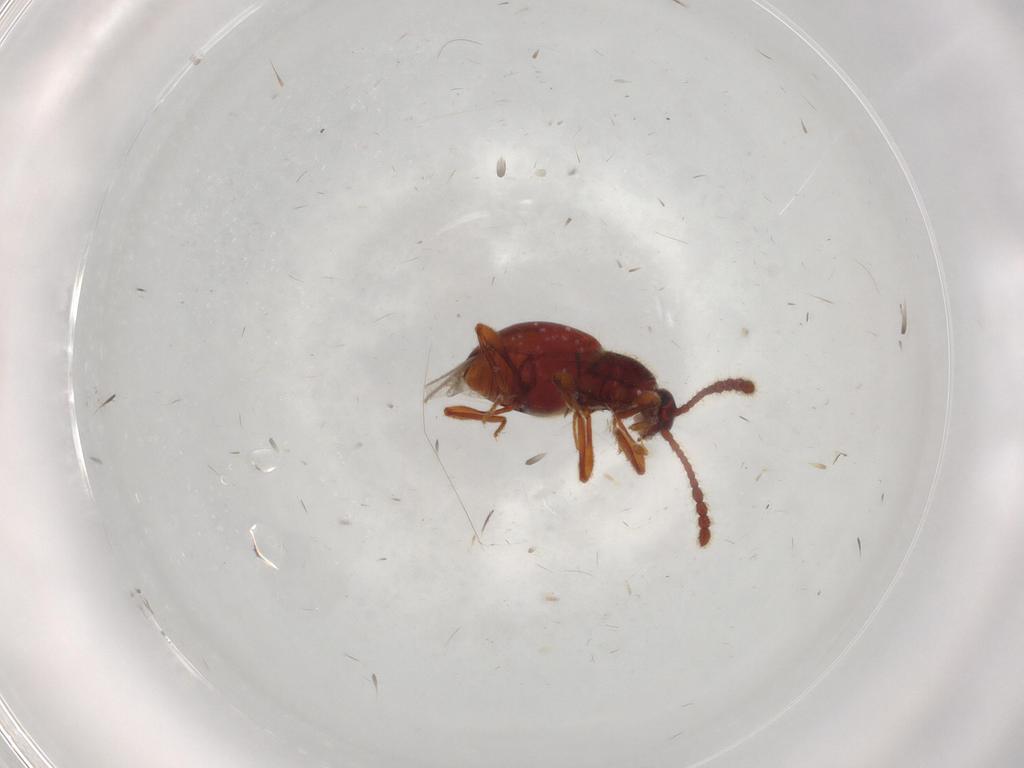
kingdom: Animalia
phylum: Arthropoda
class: Insecta
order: Coleoptera
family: Staphylinidae
